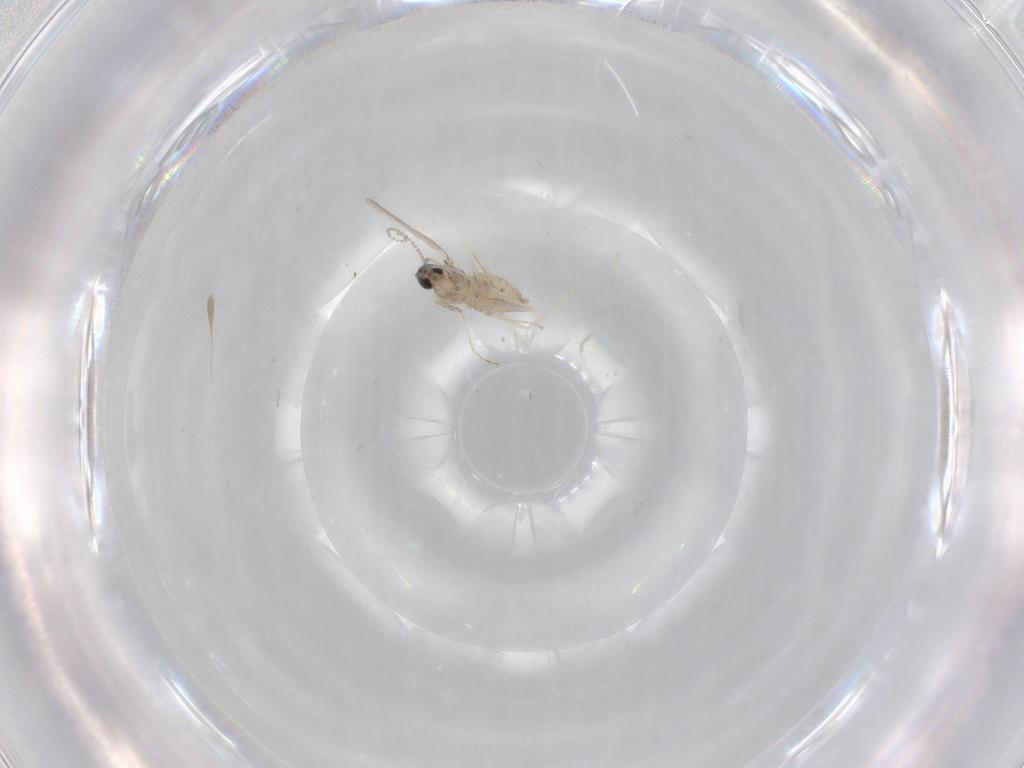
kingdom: Animalia
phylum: Arthropoda
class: Insecta
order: Diptera
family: Cecidomyiidae
